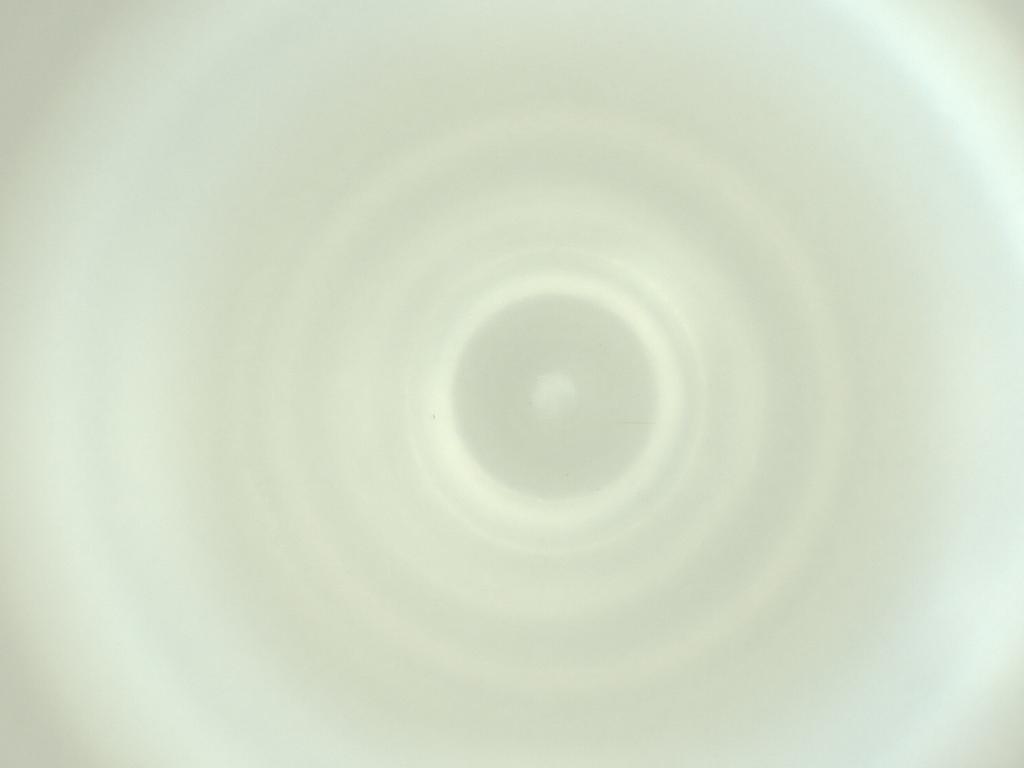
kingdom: Animalia
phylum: Arthropoda
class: Insecta
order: Diptera
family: Cecidomyiidae
